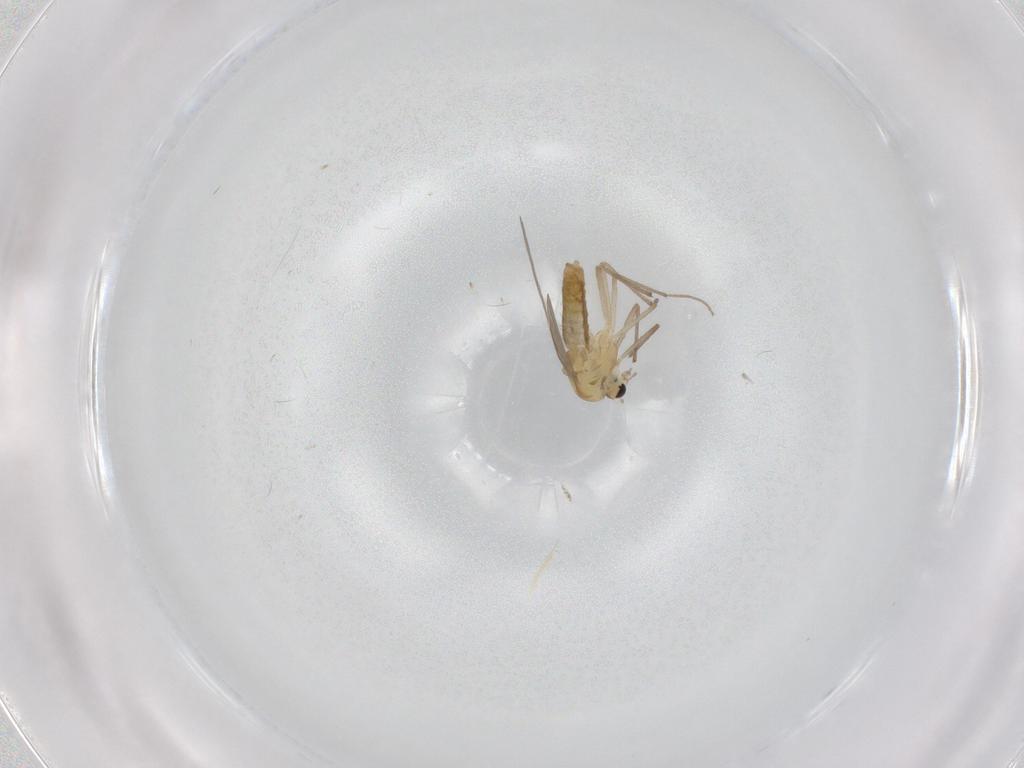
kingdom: Animalia
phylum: Arthropoda
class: Insecta
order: Diptera
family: Chironomidae
